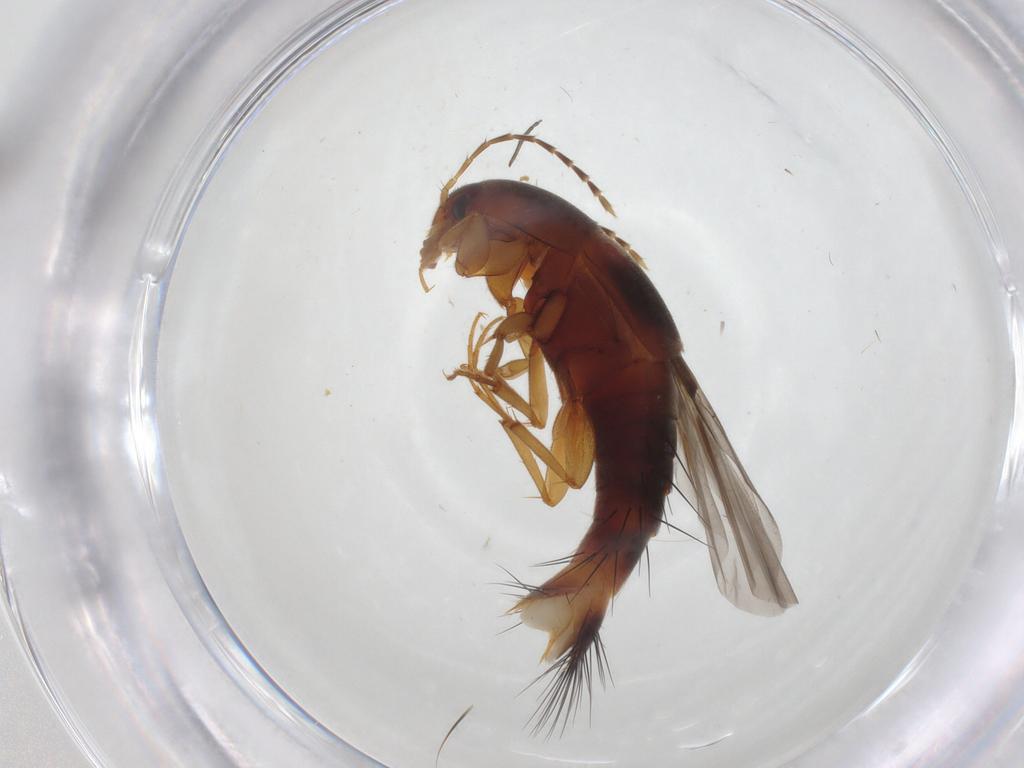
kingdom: Animalia
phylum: Arthropoda
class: Insecta
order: Coleoptera
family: Staphylinidae
